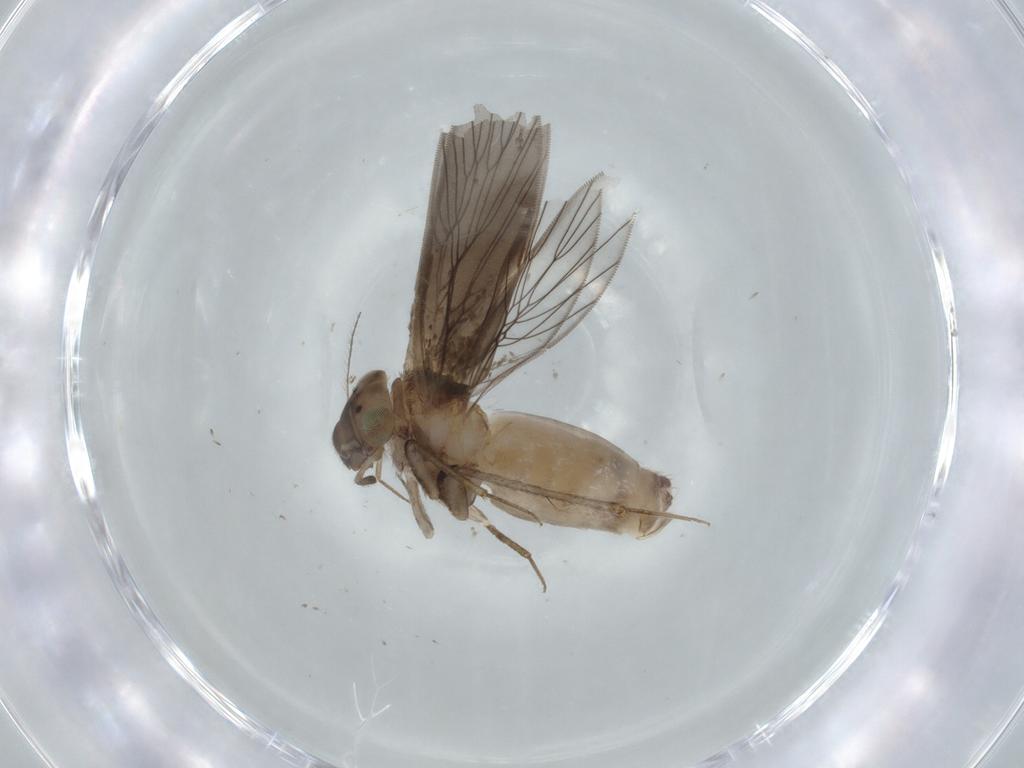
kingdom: Animalia
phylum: Arthropoda
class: Insecta
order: Psocodea
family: Lepidopsocidae
